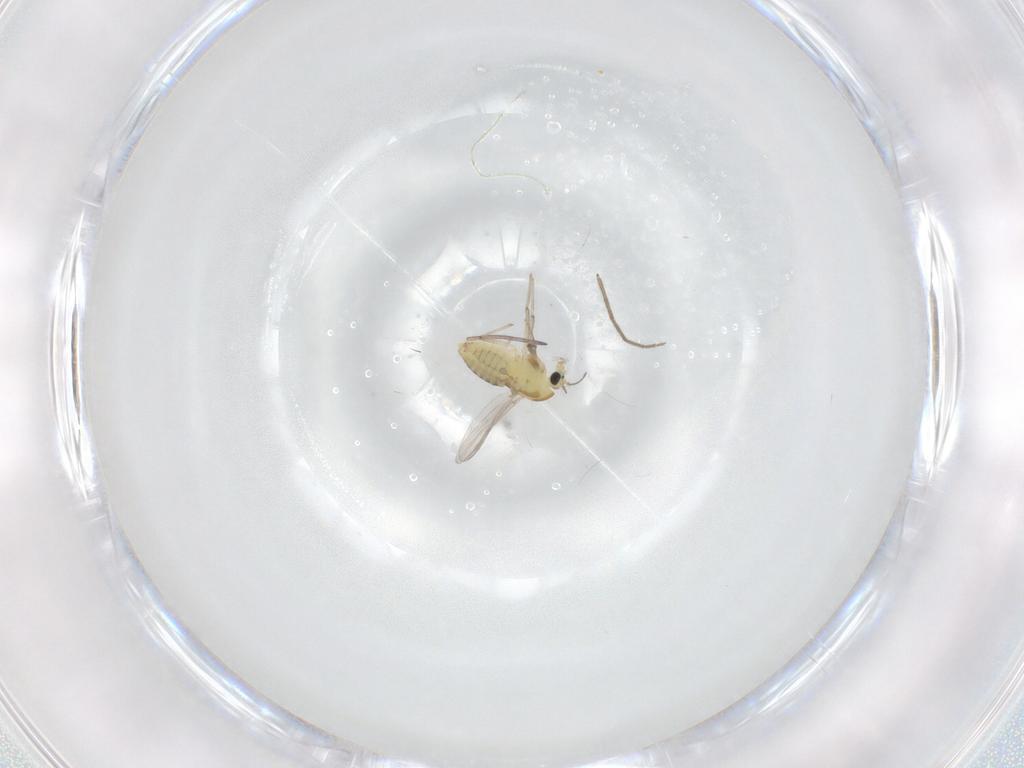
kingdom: Animalia
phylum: Arthropoda
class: Insecta
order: Diptera
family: Chironomidae
